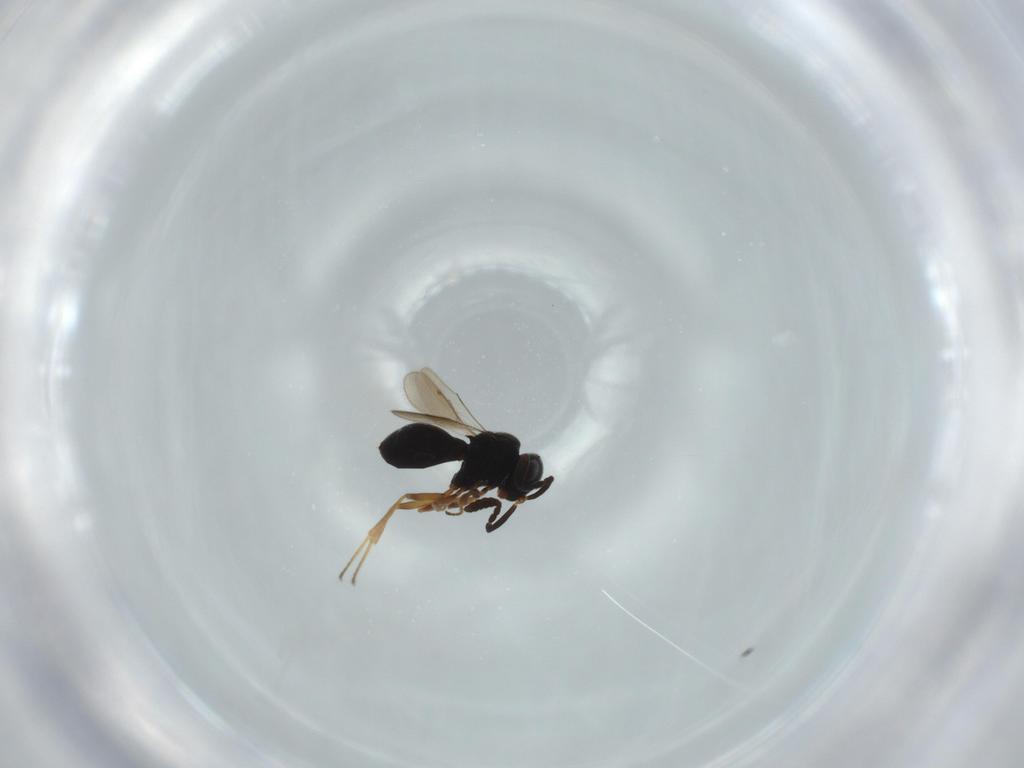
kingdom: Animalia
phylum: Arthropoda
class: Insecta
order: Hymenoptera
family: Scelionidae
